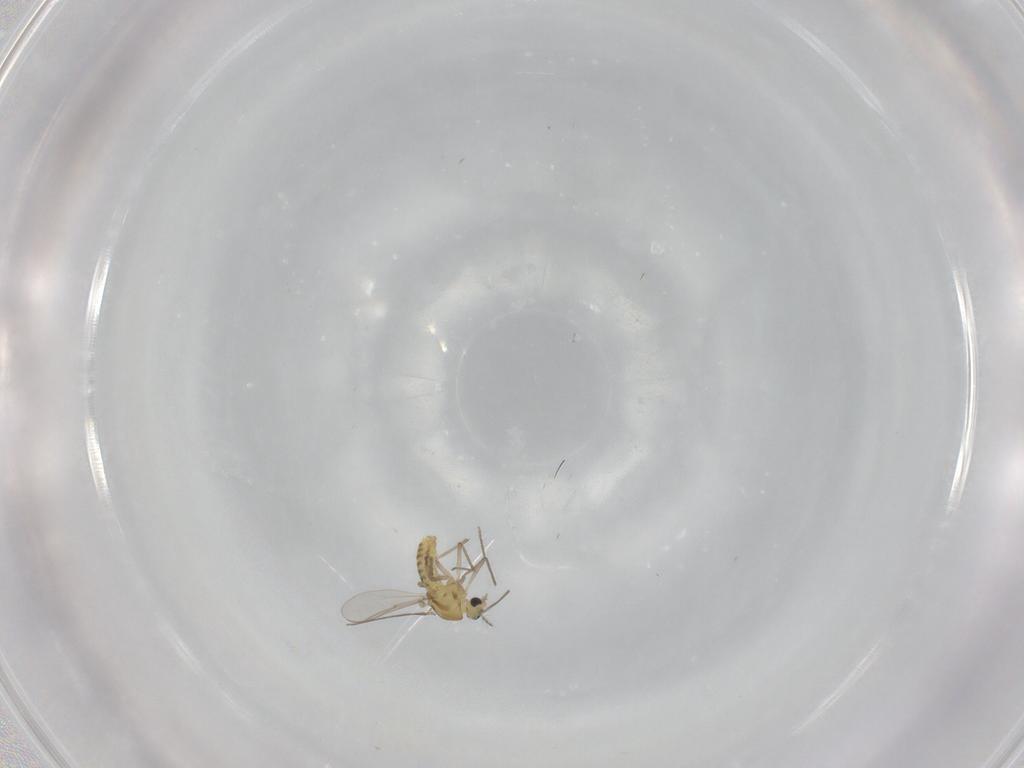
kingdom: Animalia
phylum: Arthropoda
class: Insecta
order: Diptera
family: Chironomidae
